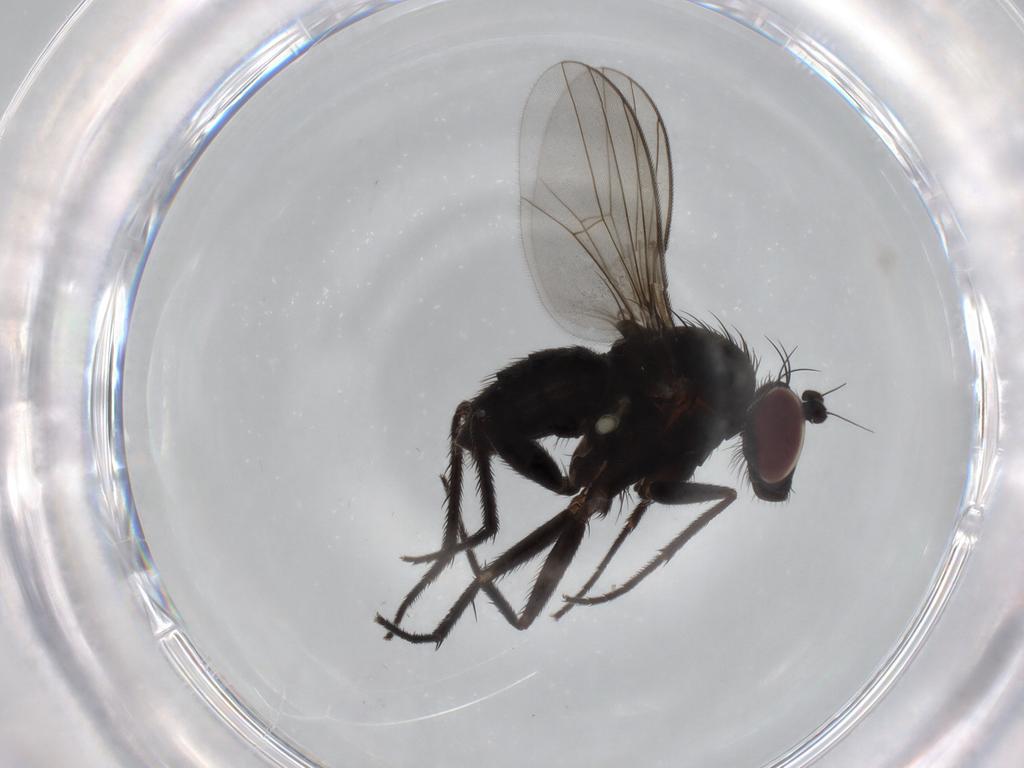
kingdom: Animalia
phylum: Arthropoda
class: Insecta
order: Diptera
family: Dolichopodidae
